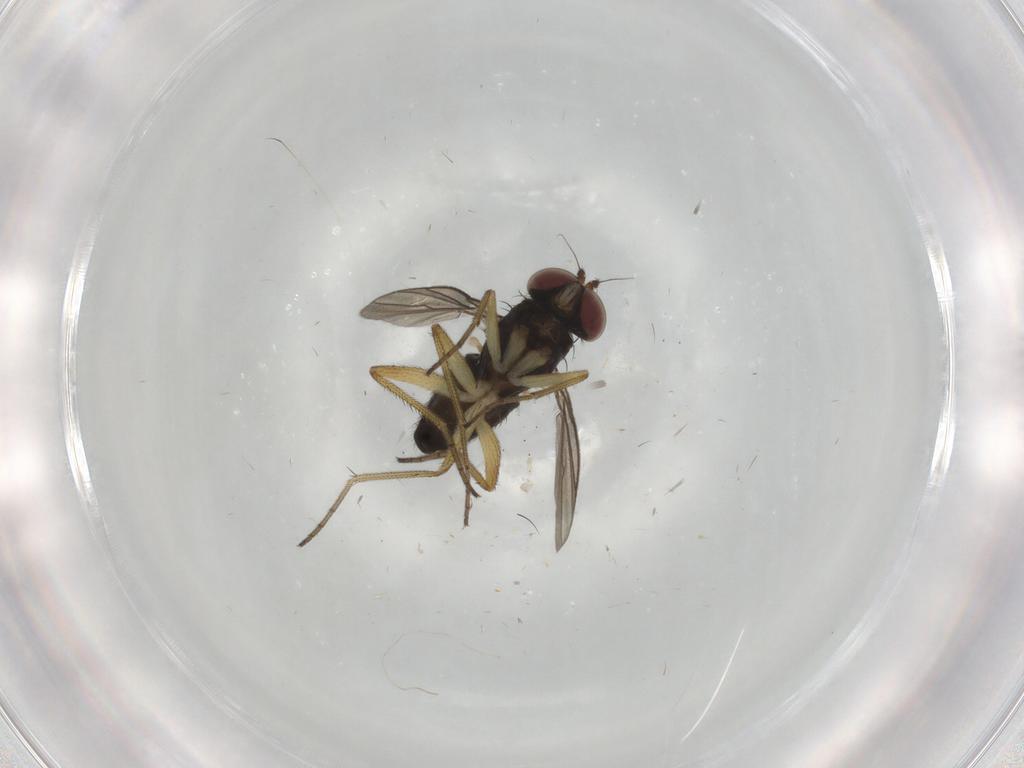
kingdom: Animalia
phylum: Arthropoda
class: Insecta
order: Diptera
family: Dolichopodidae
